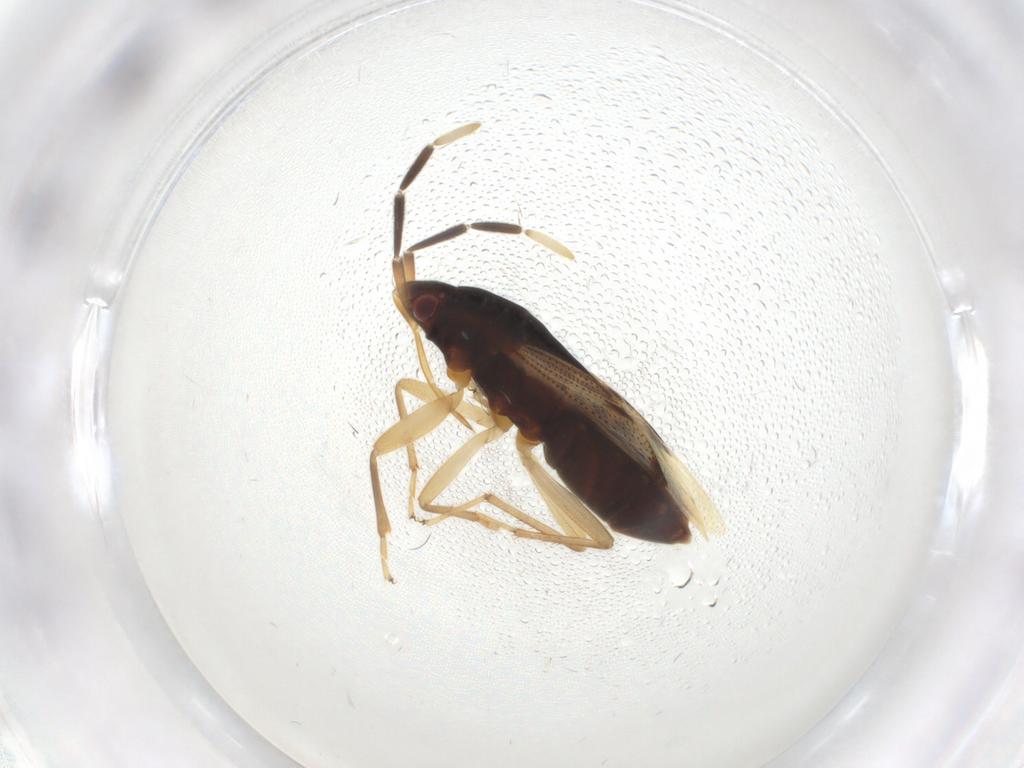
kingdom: Animalia
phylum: Arthropoda
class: Insecta
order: Hemiptera
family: Rhyparochromidae
